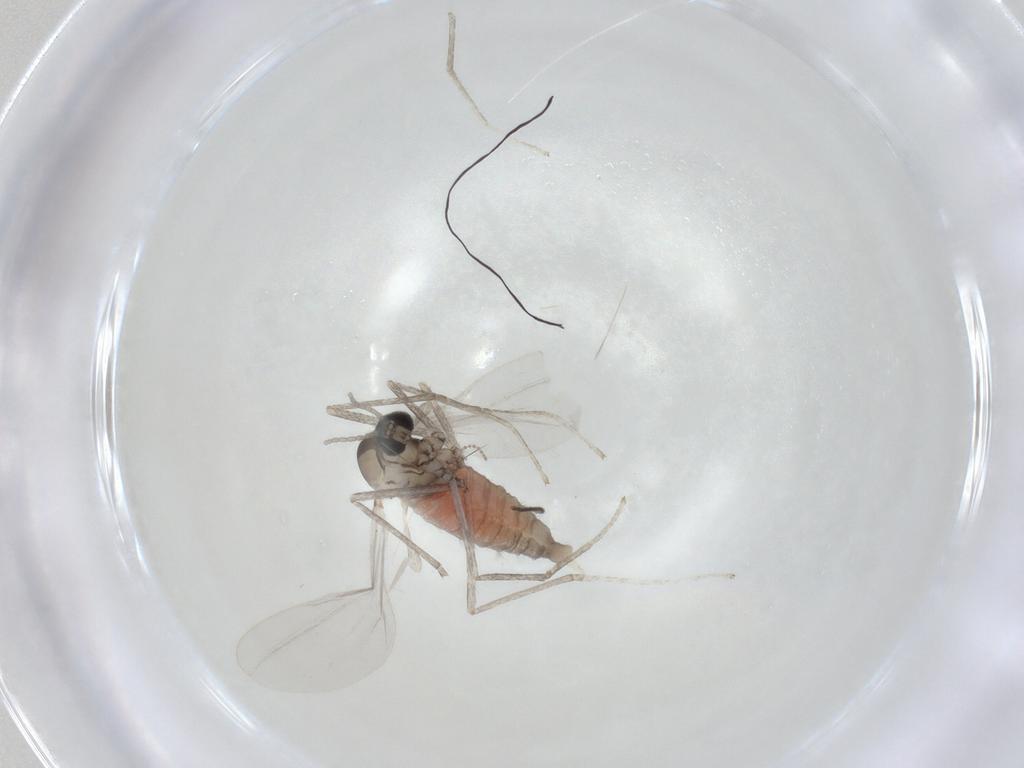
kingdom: Animalia
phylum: Arthropoda
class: Insecta
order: Diptera
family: Cecidomyiidae
